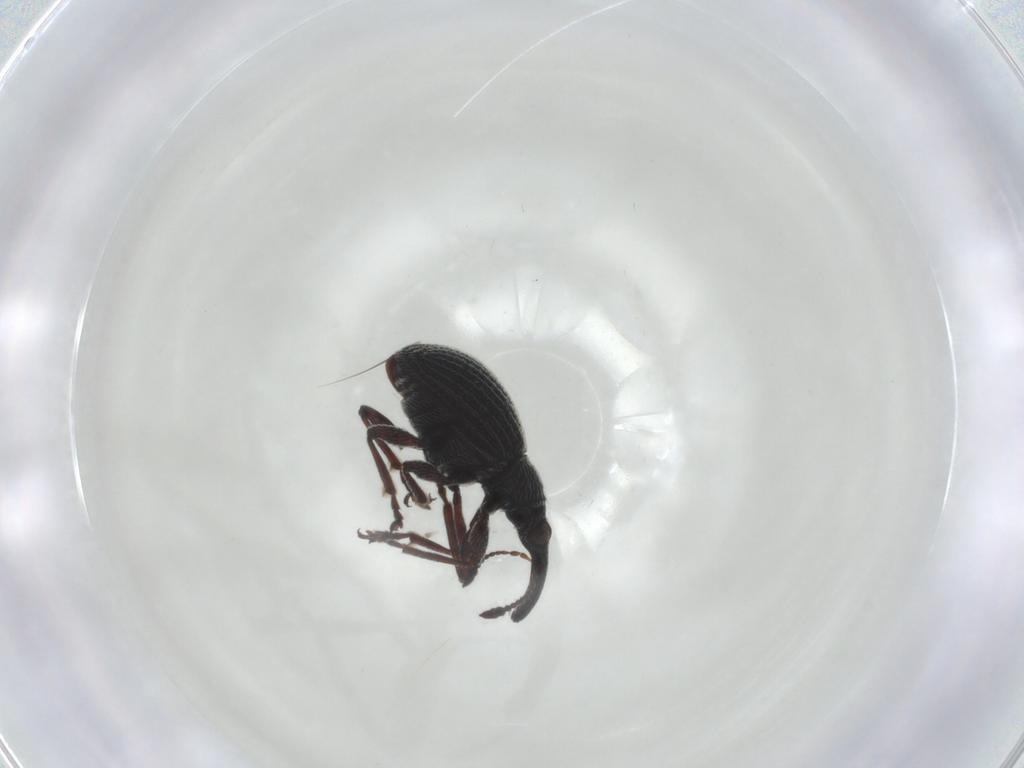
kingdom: Animalia
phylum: Arthropoda
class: Insecta
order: Coleoptera
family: Brentidae
